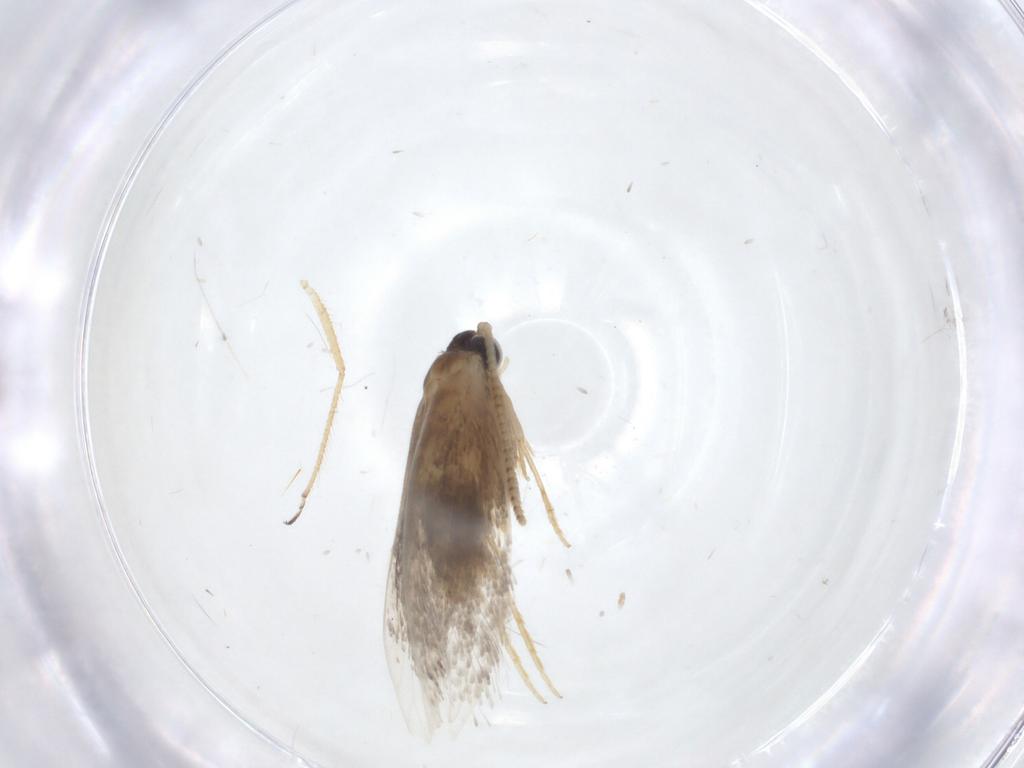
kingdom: Animalia
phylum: Arthropoda
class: Insecta
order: Lepidoptera
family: Tineidae
